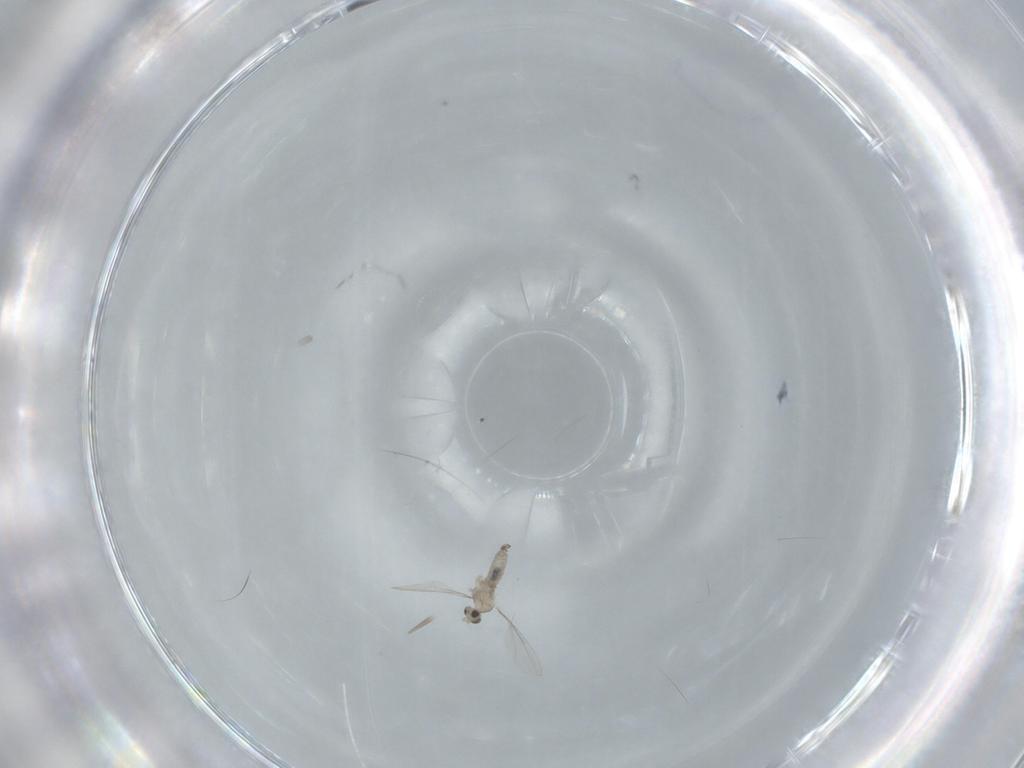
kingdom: Animalia
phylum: Arthropoda
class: Insecta
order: Diptera
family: Cecidomyiidae
